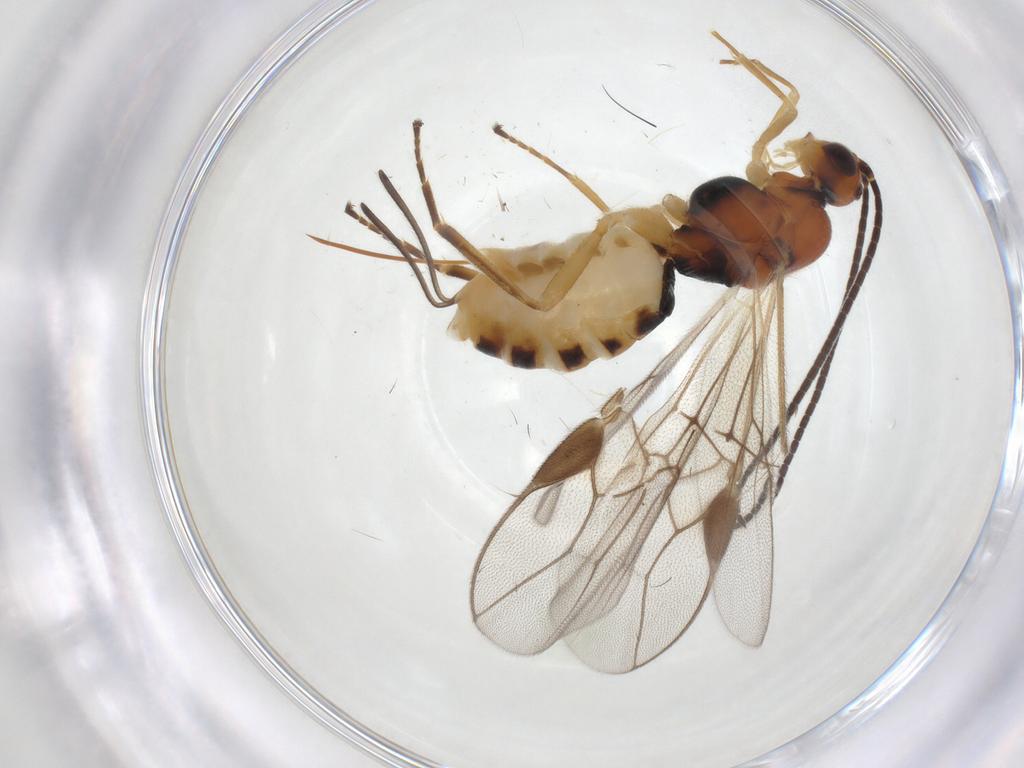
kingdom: Animalia
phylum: Arthropoda
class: Insecta
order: Hymenoptera
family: Braconidae
